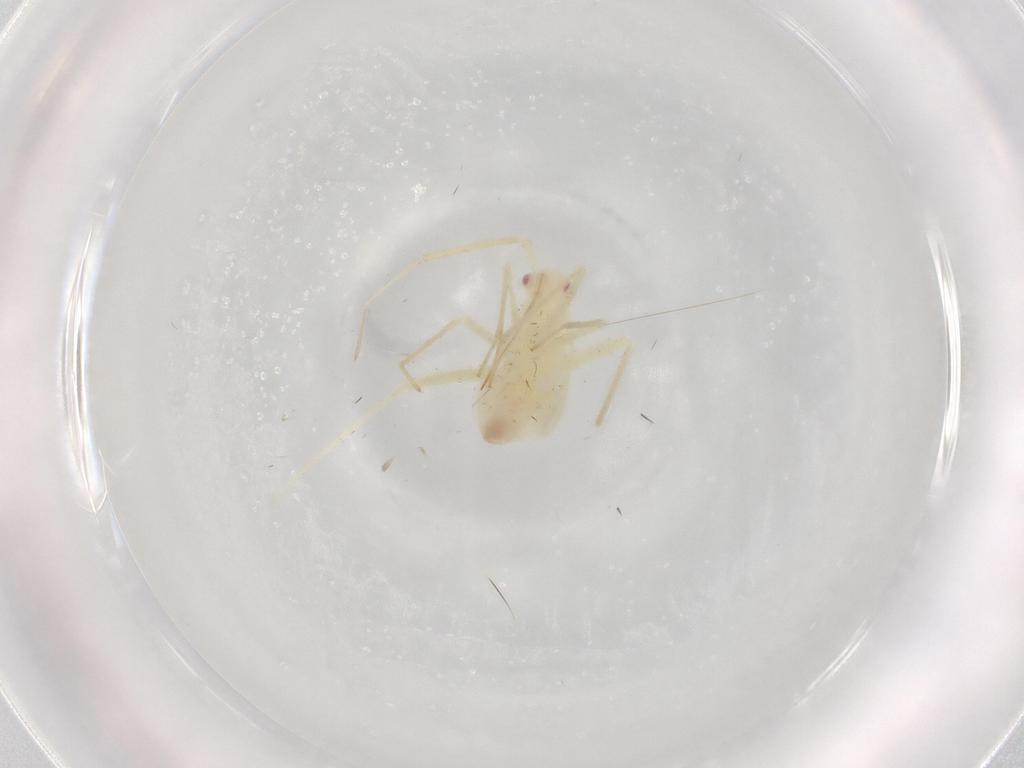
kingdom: Animalia
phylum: Arthropoda
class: Insecta
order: Hemiptera
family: Miridae
